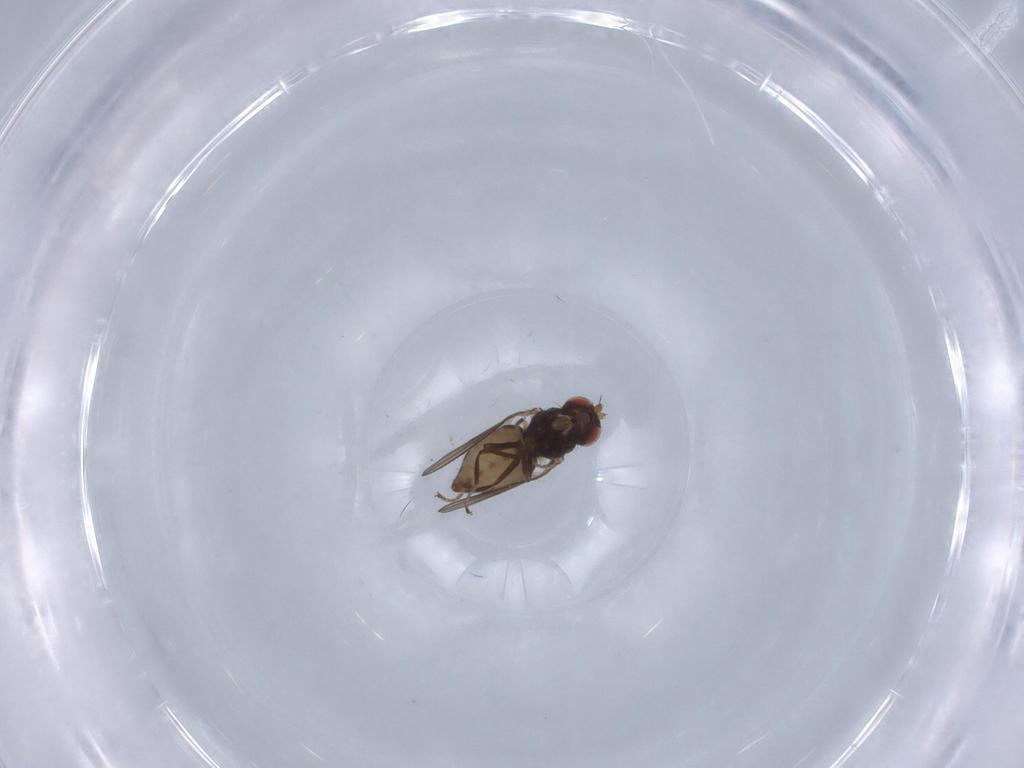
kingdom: Animalia
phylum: Arthropoda
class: Insecta
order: Diptera
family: Ephydridae
